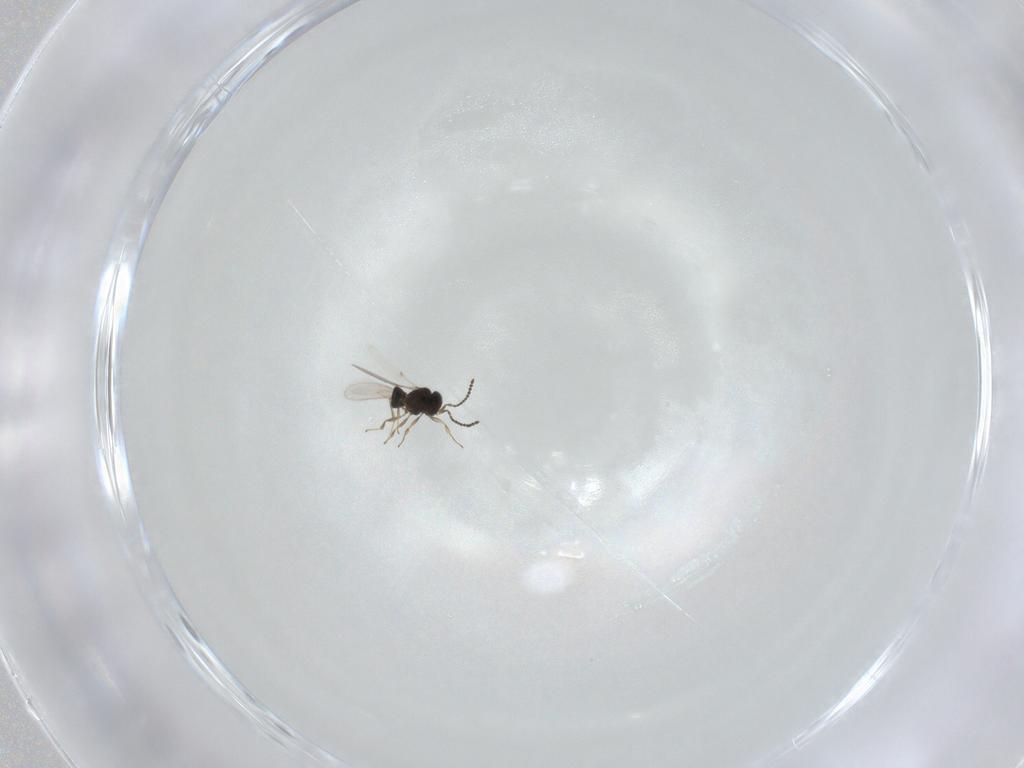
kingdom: Animalia
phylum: Arthropoda
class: Insecta
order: Hymenoptera
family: Scelionidae
